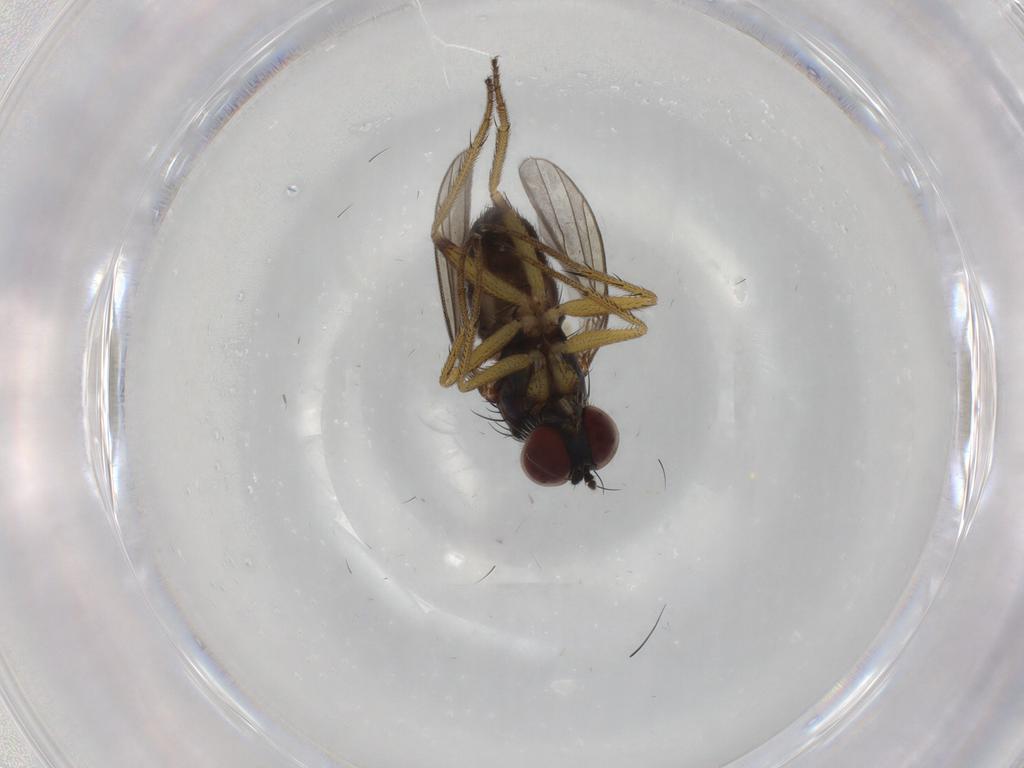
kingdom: Animalia
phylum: Arthropoda
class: Insecta
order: Diptera
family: Dolichopodidae
